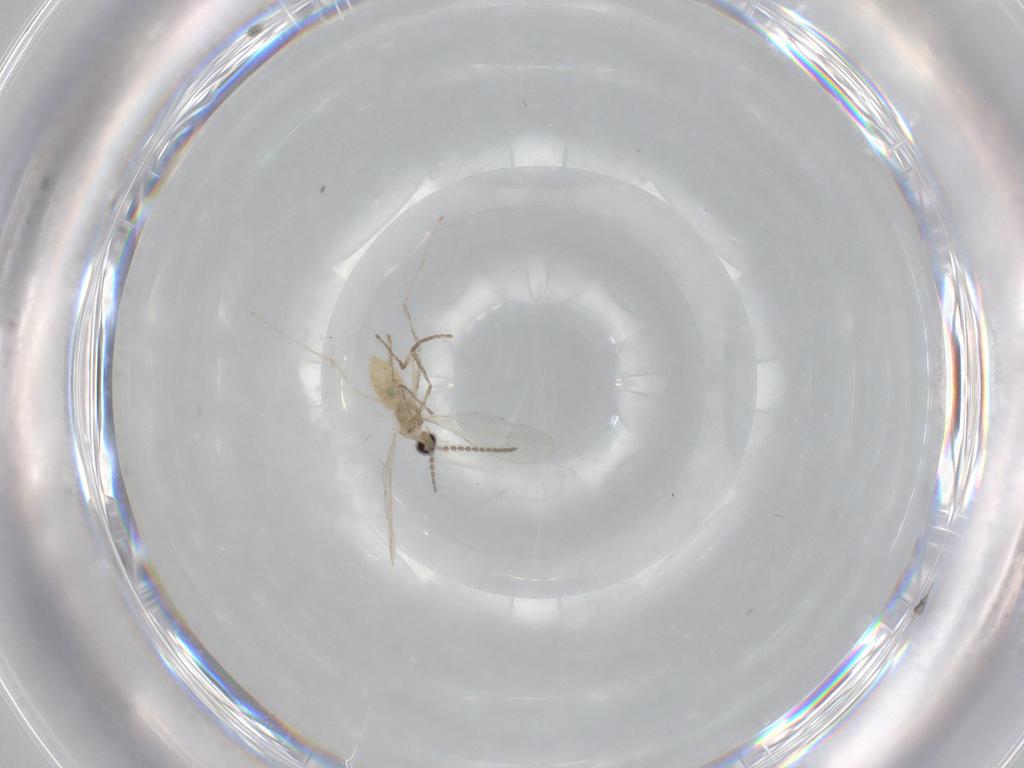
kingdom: Animalia
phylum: Arthropoda
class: Insecta
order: Diptera
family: Cecidomyiidae
